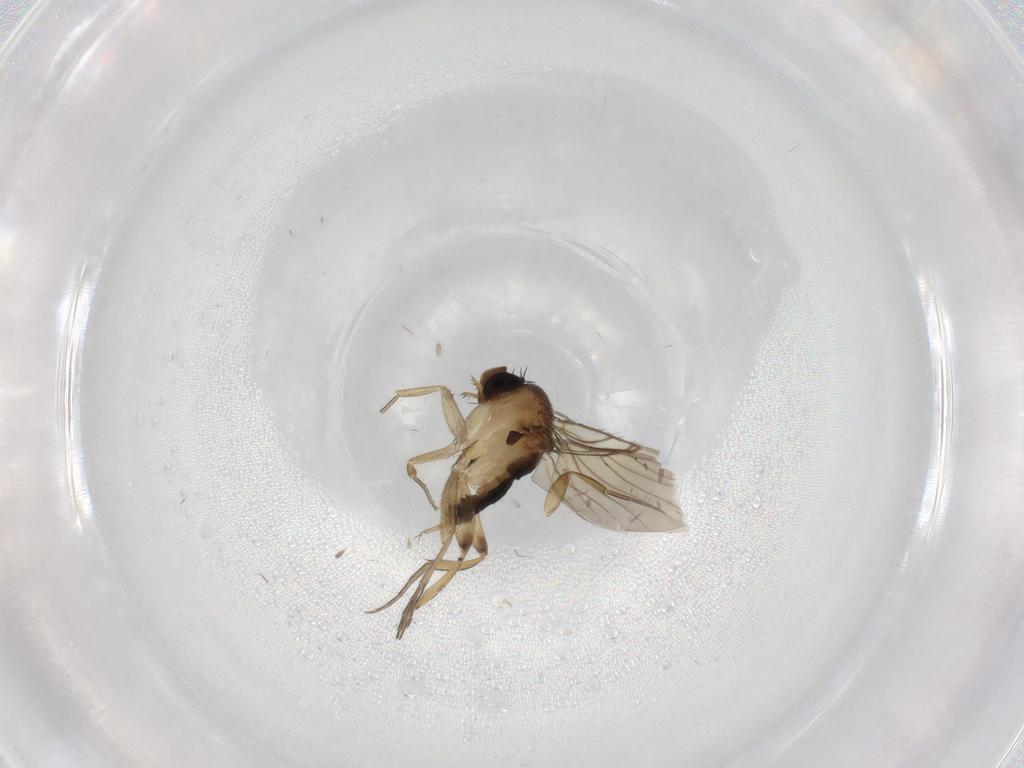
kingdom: Animalia
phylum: Arthropoda
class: Insecta
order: Diptera
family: Phoridae
